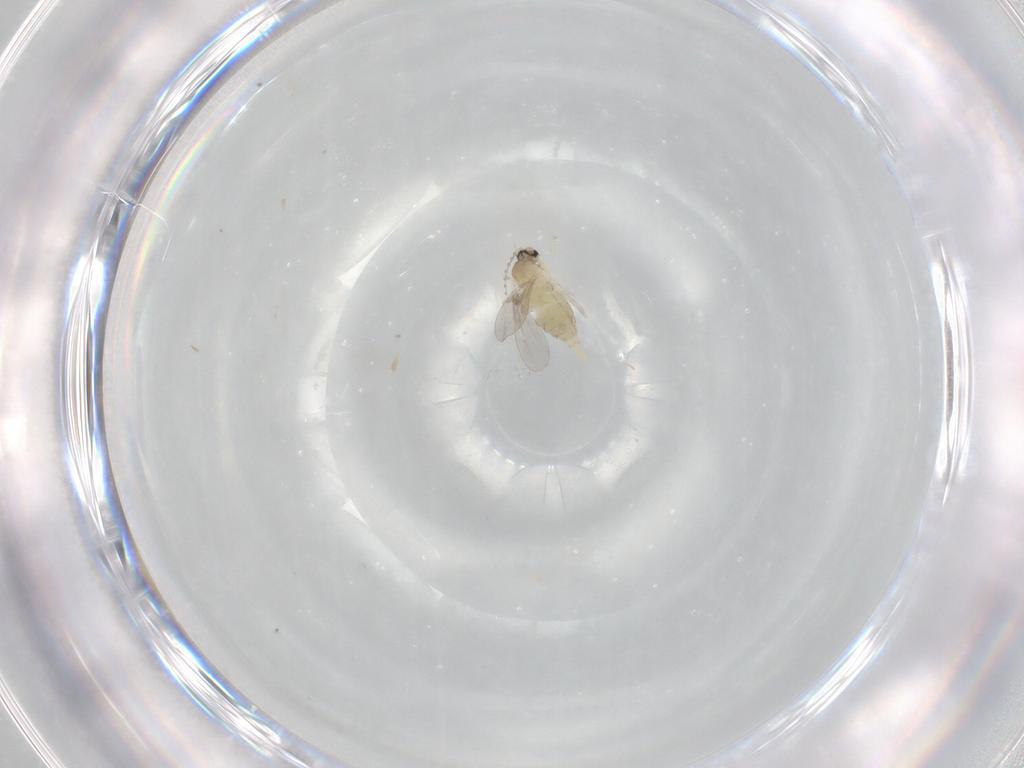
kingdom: Animalia
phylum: Arthropoda
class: Insecta
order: Diptera
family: Cecidomyiidae
